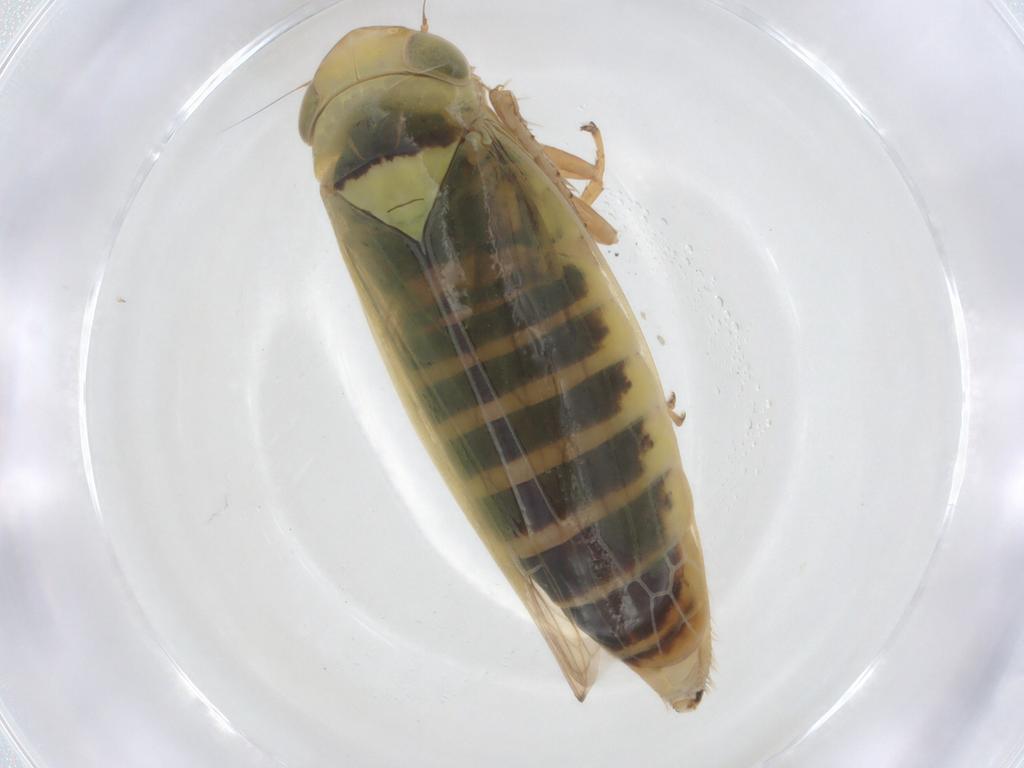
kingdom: Animalia
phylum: Arthropoda
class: Insecta
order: Hemiptera
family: Cicadellidae
